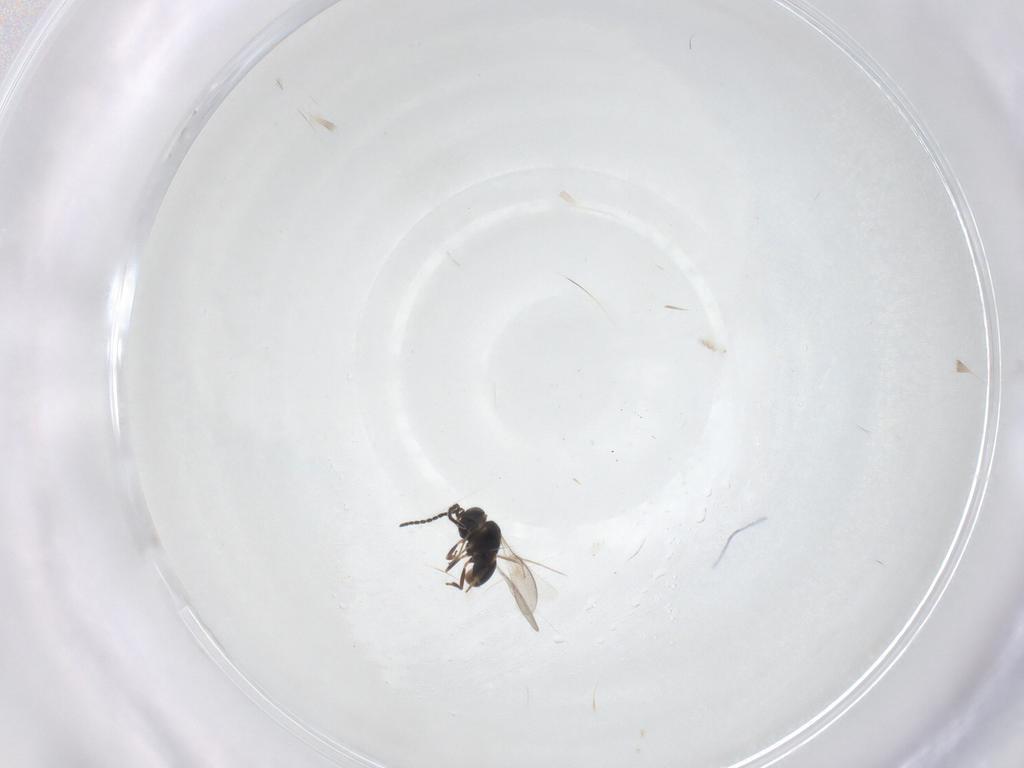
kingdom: Animalia
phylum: Arthropoda
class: Insecta
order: Hymenoptera
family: Scelionidae
